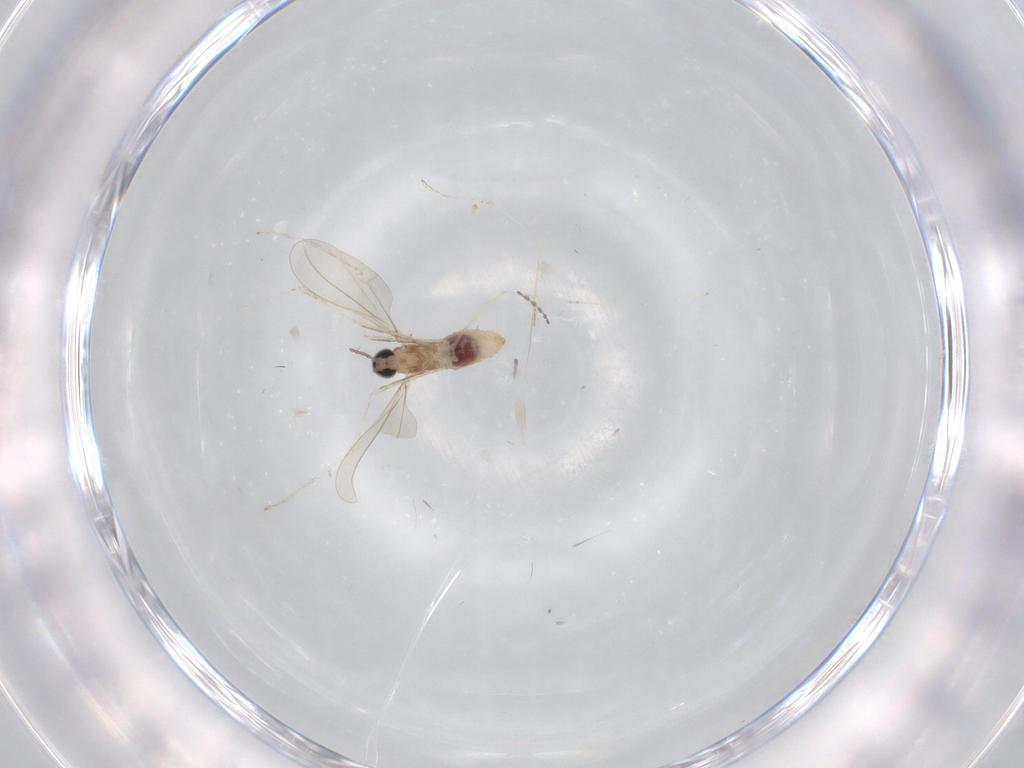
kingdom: Animalia
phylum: Arthropoda
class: Insecta
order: Diptera
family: Cecidomyiidae
